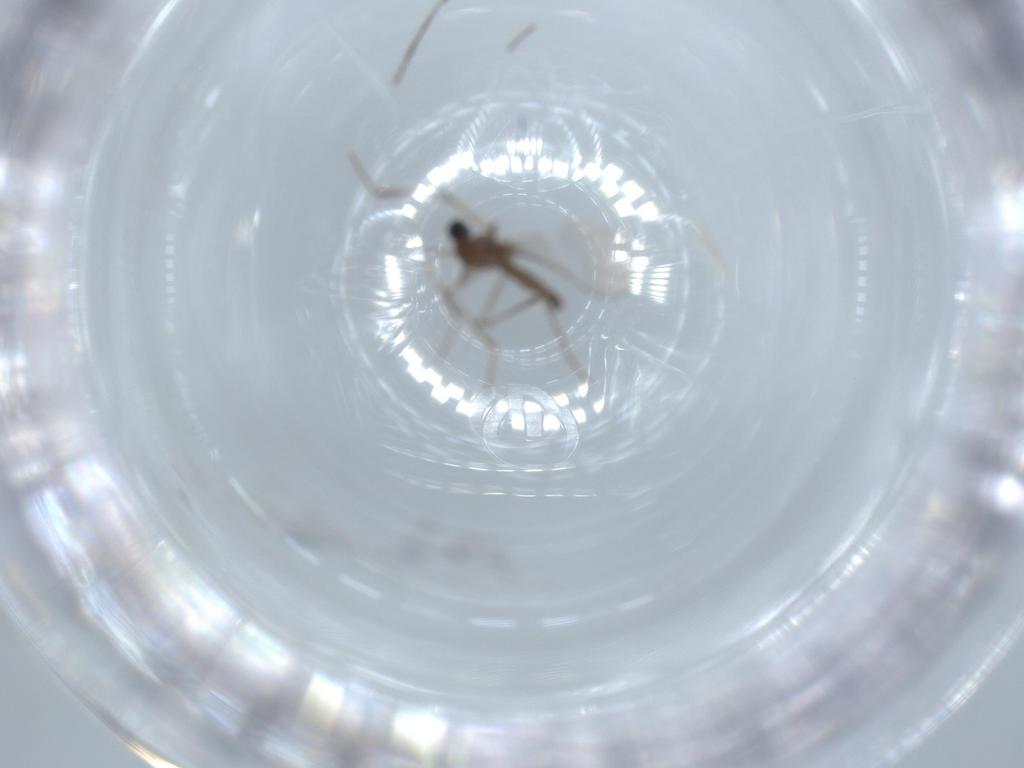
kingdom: Animalia
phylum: Arthropoda
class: Insecta
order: Diptera
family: Cecidomyiidae
